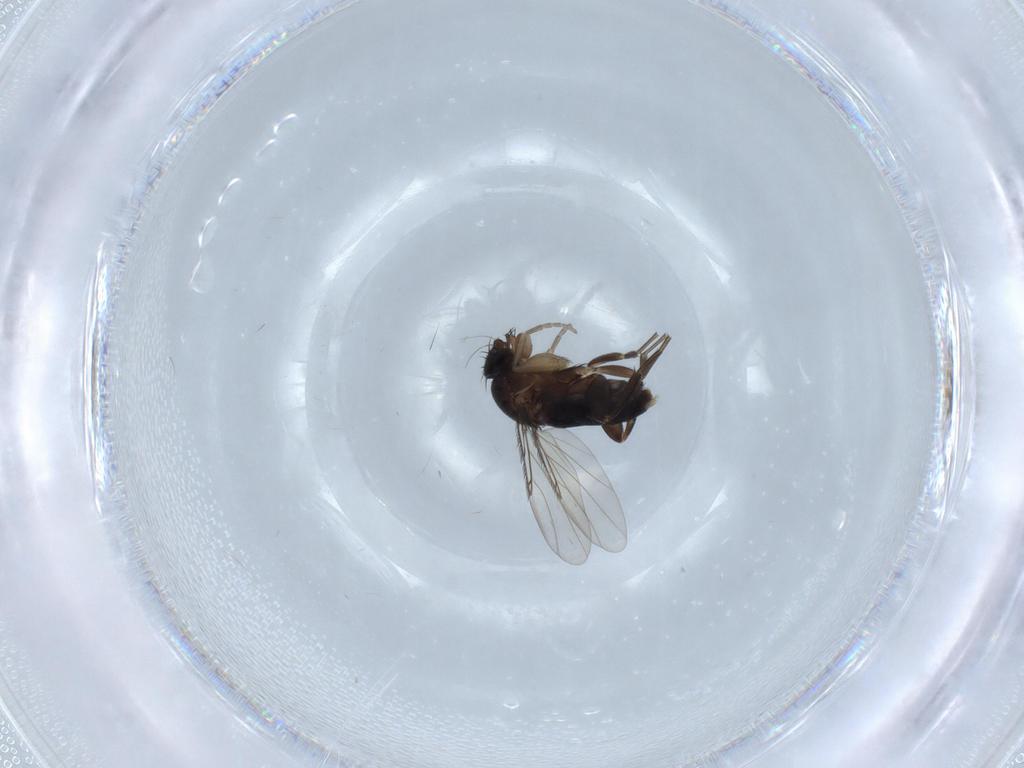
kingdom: Animalia
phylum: Arthropoda
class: Insecta
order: Diptera
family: Phoridae
